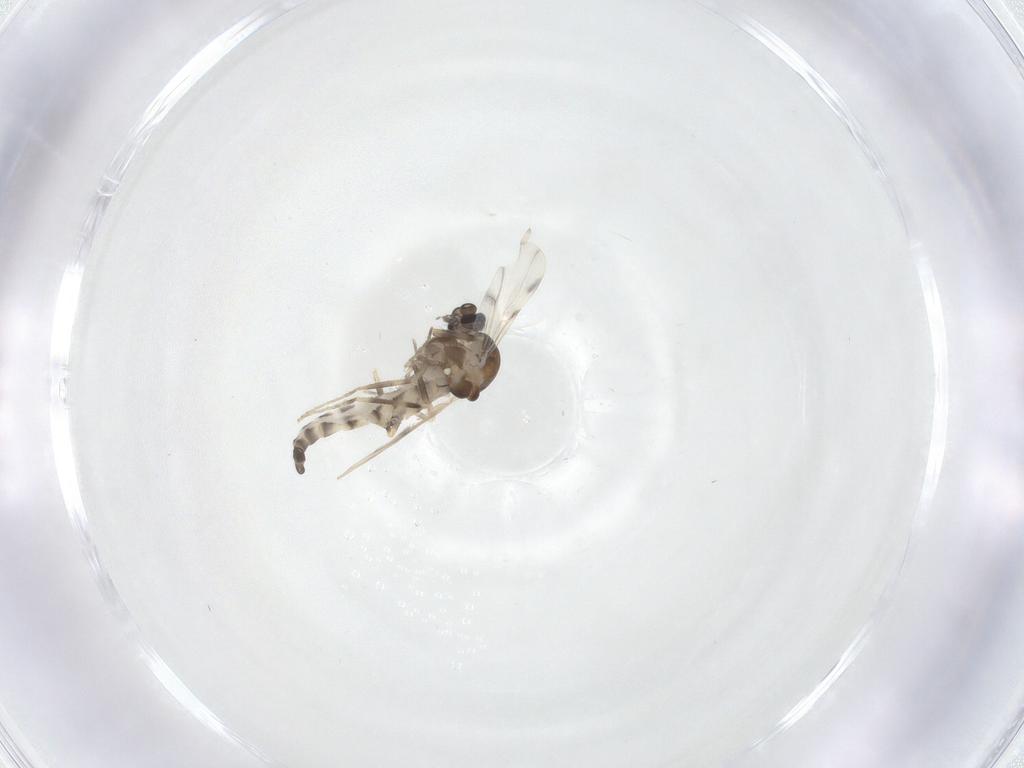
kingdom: Animalia
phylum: Arthropoda
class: Insecta
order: Diptera
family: Ceratopogonidae
